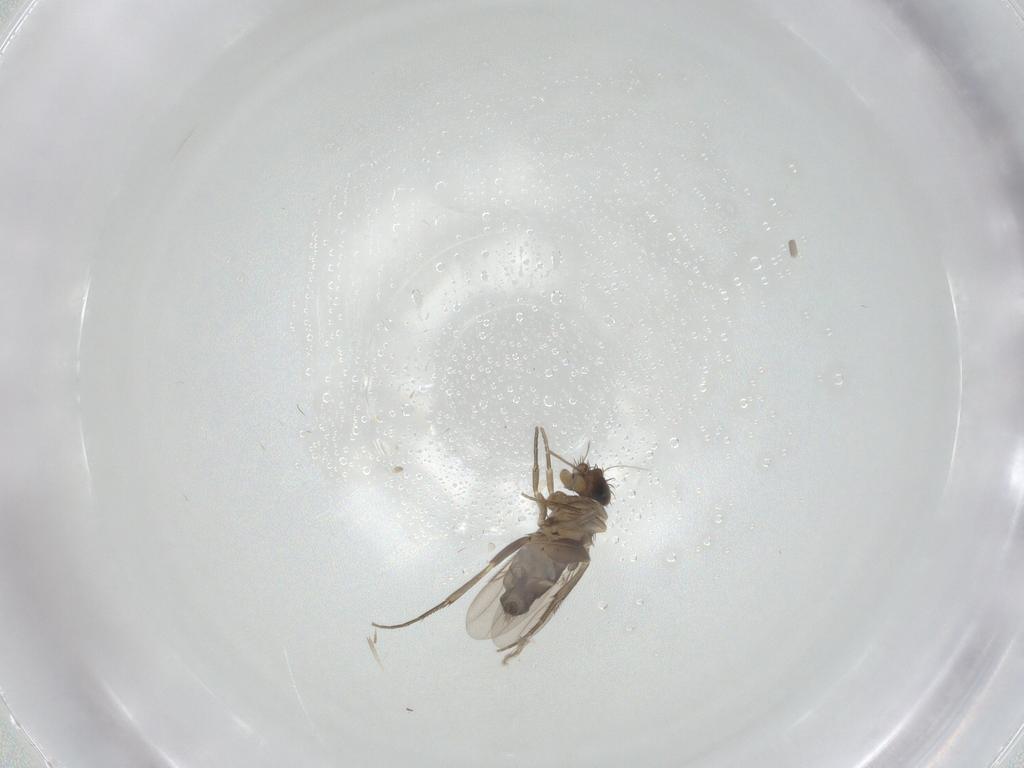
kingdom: Animalia
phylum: Arthropoda
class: Insecta
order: Diptera
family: Phoridae
